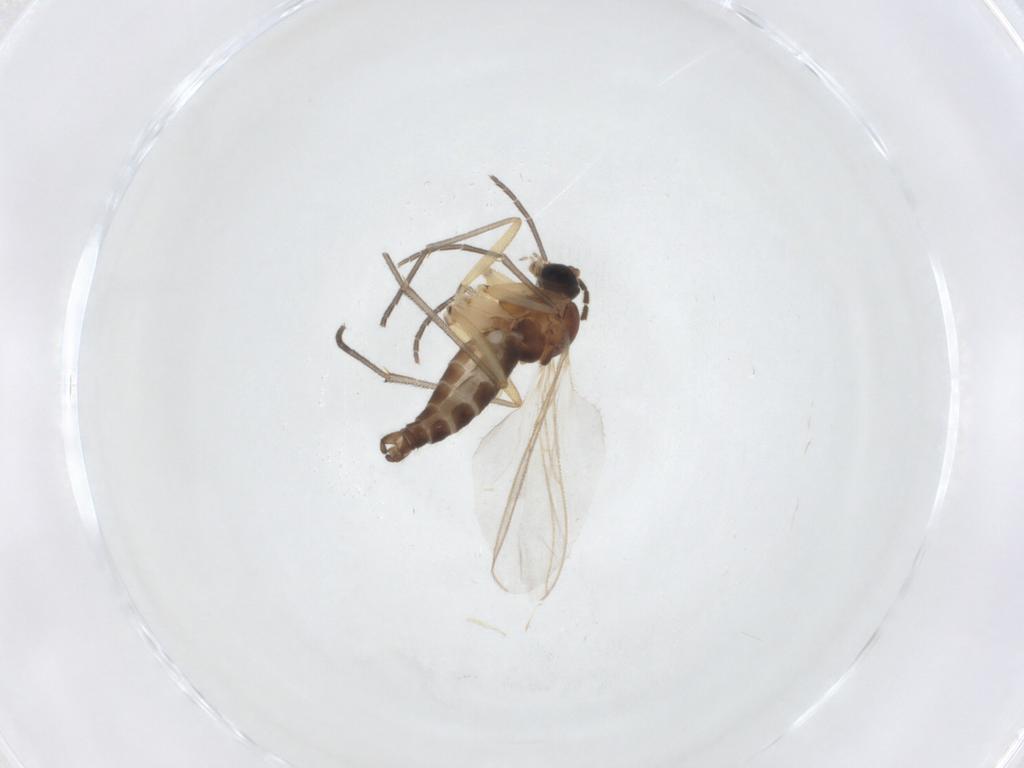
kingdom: Animalia
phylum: Arthropoda
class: Insecta
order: Diptera
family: Sciaridae
